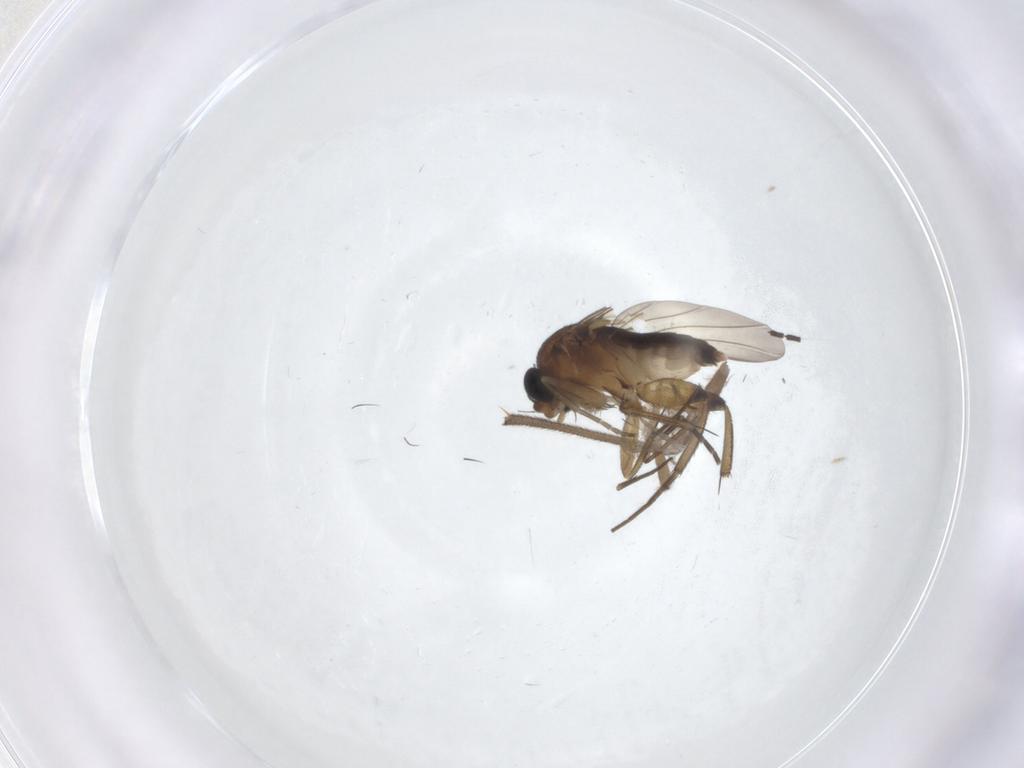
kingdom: Animalia
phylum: Arthropoda
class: Insecta
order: Diptera
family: Phoridae
